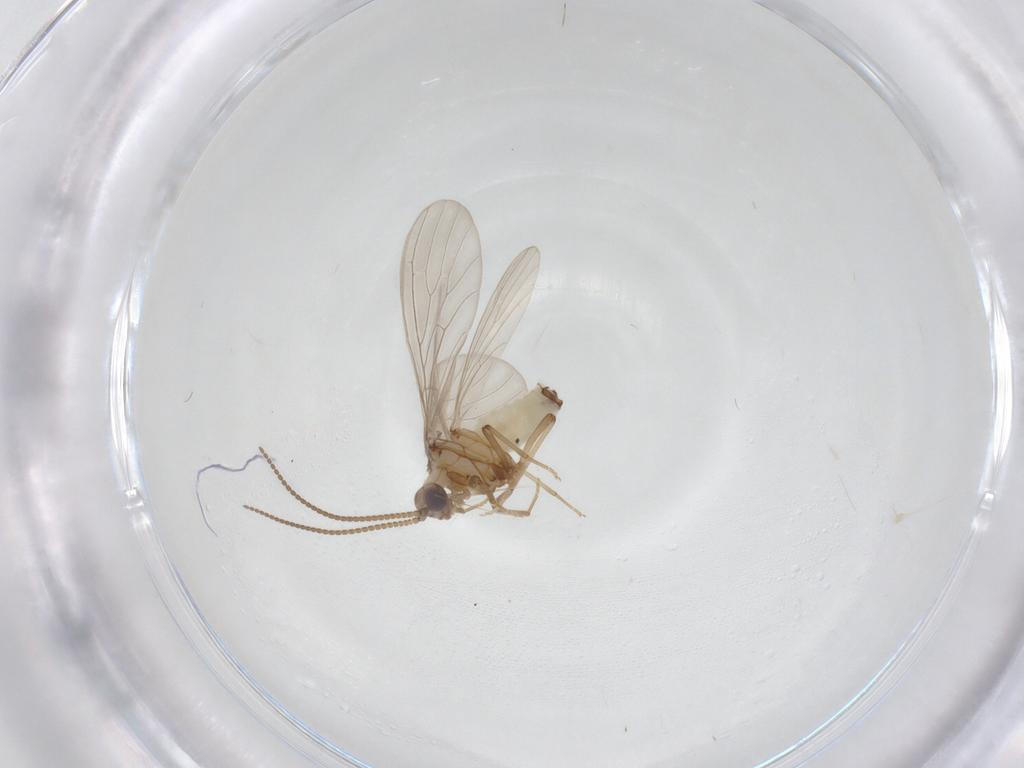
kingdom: Animalia
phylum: Arthropoda
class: Insecta
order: Neuroptera
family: Coniopterygidae
